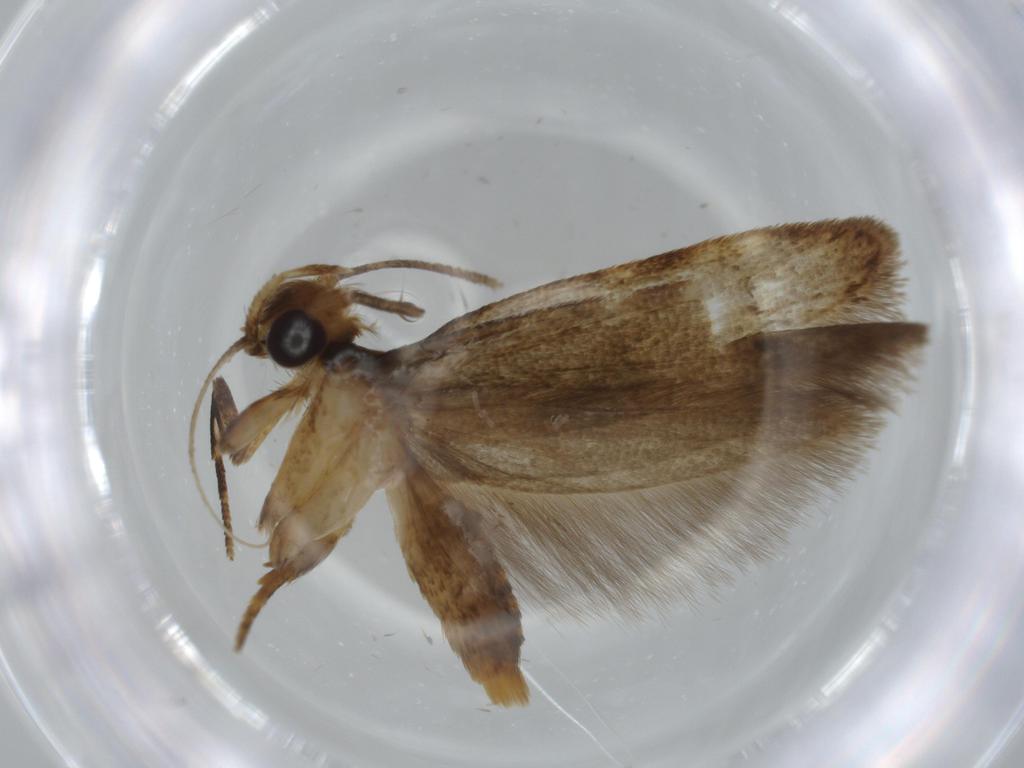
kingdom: Animalia
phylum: Arthropoda
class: Insecta
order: Lepidoptera
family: Coleophoridae
